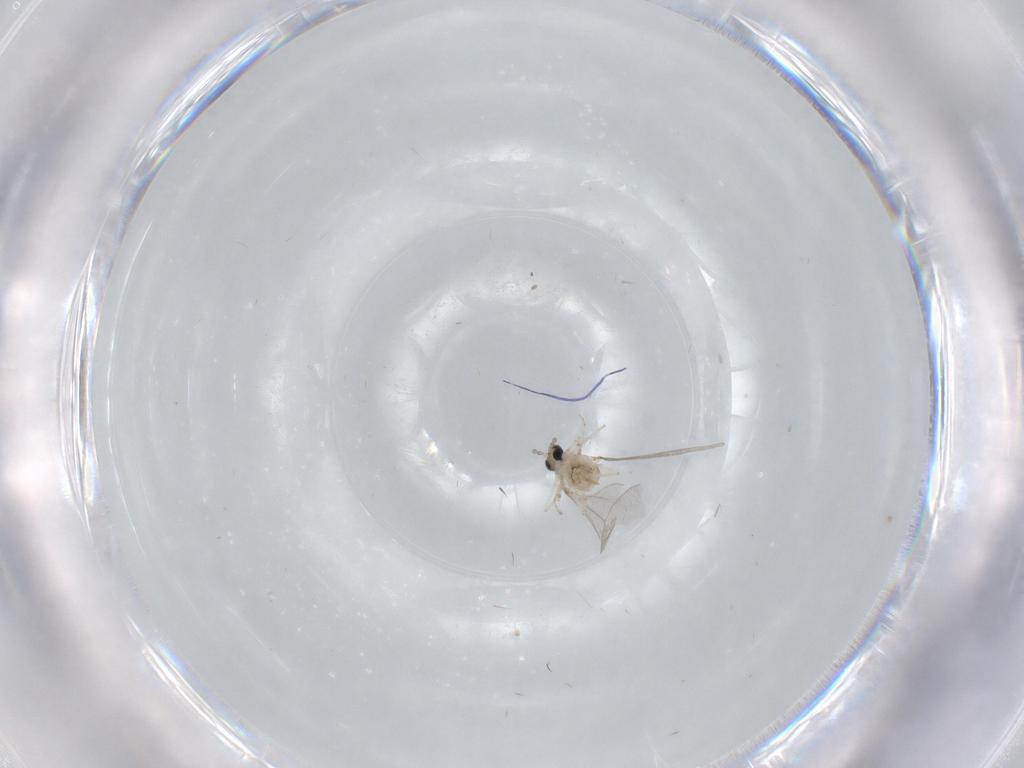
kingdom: Animalia
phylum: Arthropoda
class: Insecta
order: Diptera
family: Cecidomyiidae
